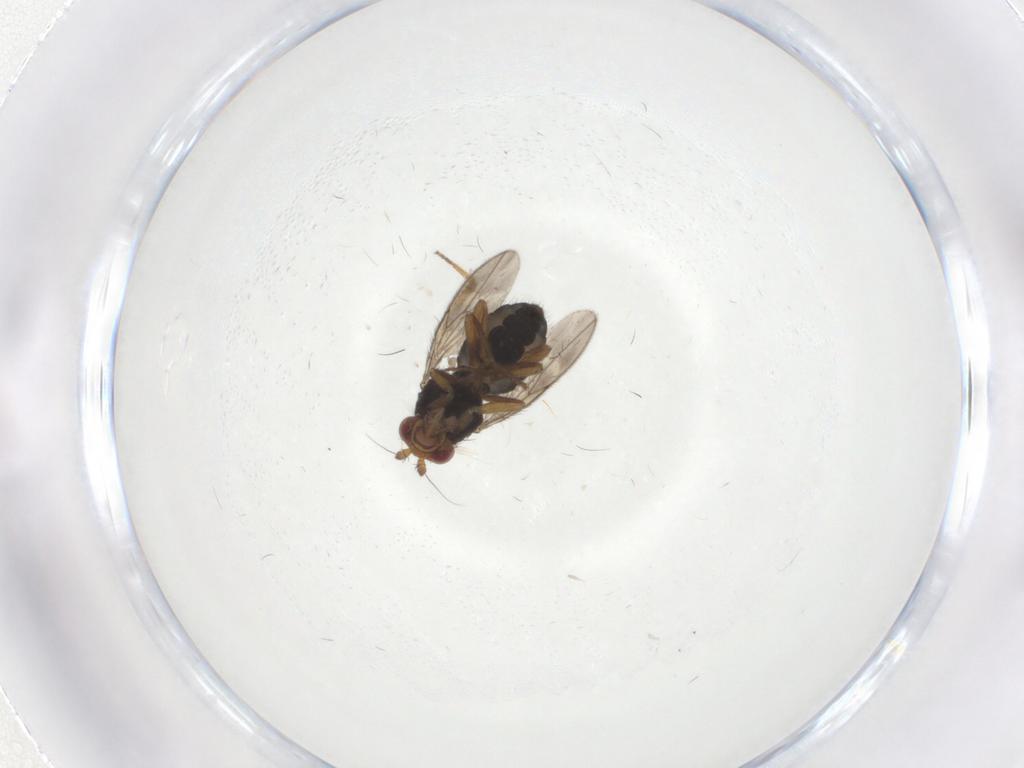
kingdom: Animalia
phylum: Arthropoda
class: Insecta
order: Diptera
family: Sphaeroceridae
